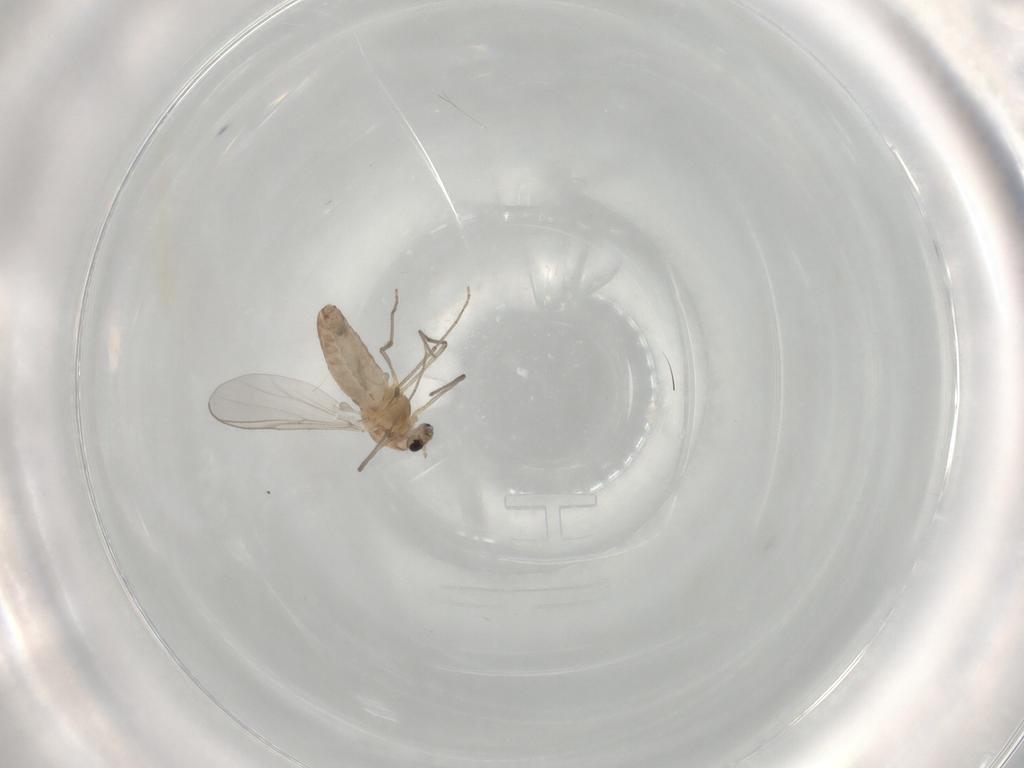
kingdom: Animalia
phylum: Arthropoda
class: Insecta
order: Diptera
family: Chironomidae
